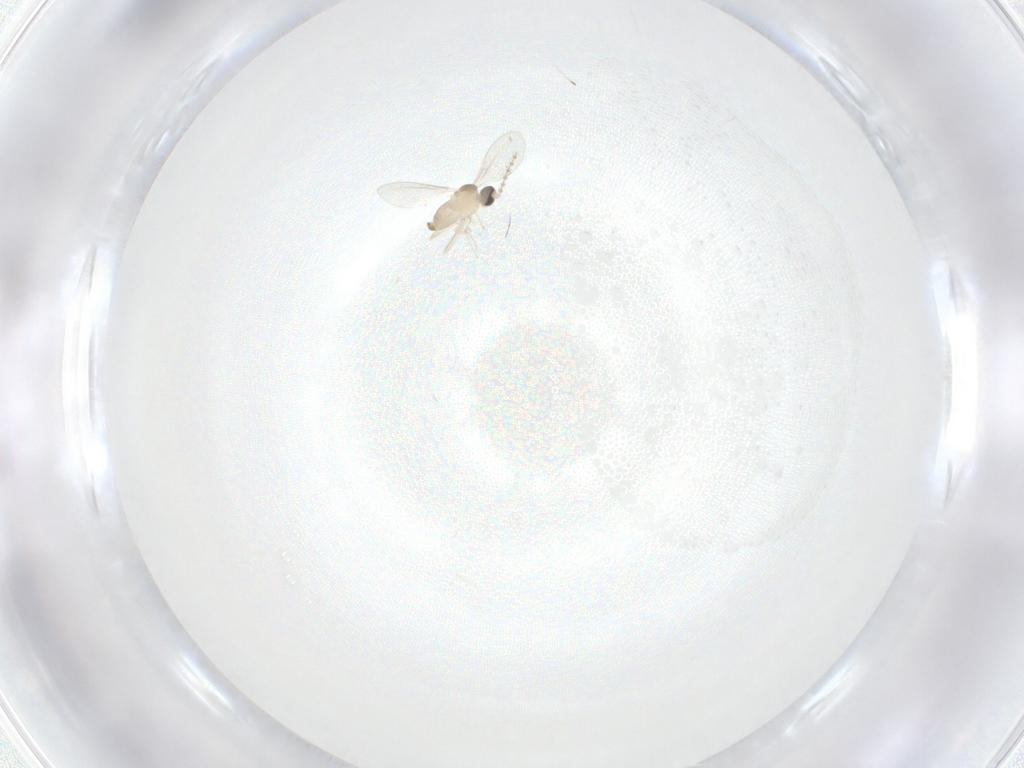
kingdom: Animalia
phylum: Arthropoda
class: Insecta
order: Diptera
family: Cecidomyiidae
